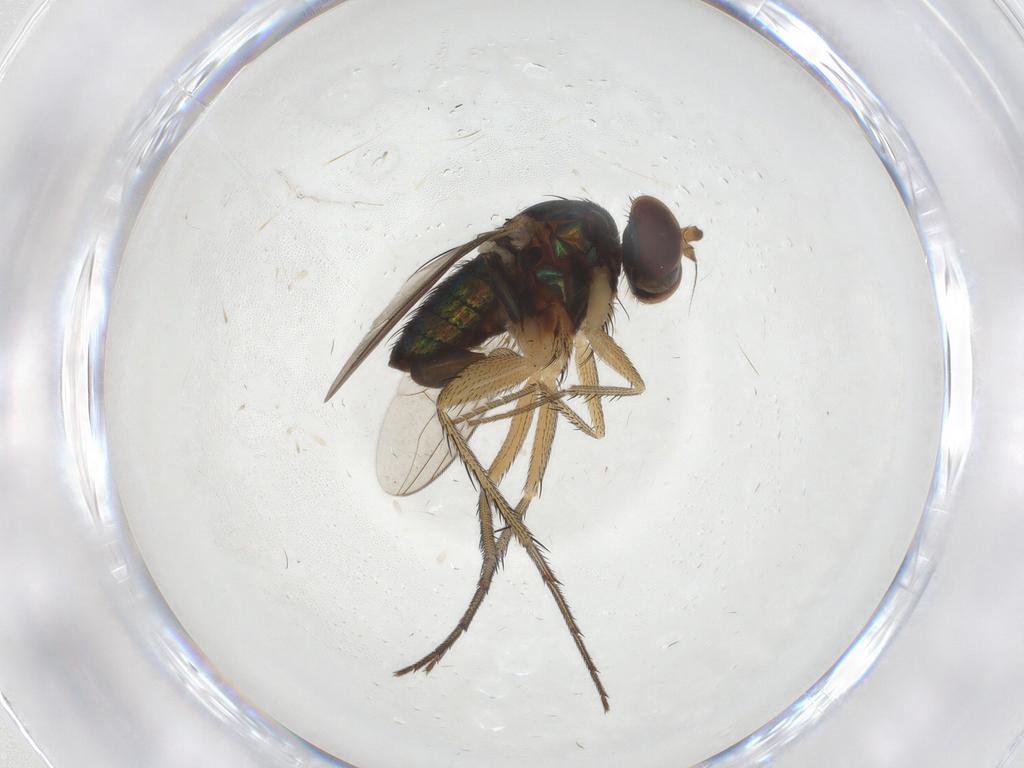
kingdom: Animalia
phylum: Arthropoda
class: Insecta
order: Diptera
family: Dolichopodidae
